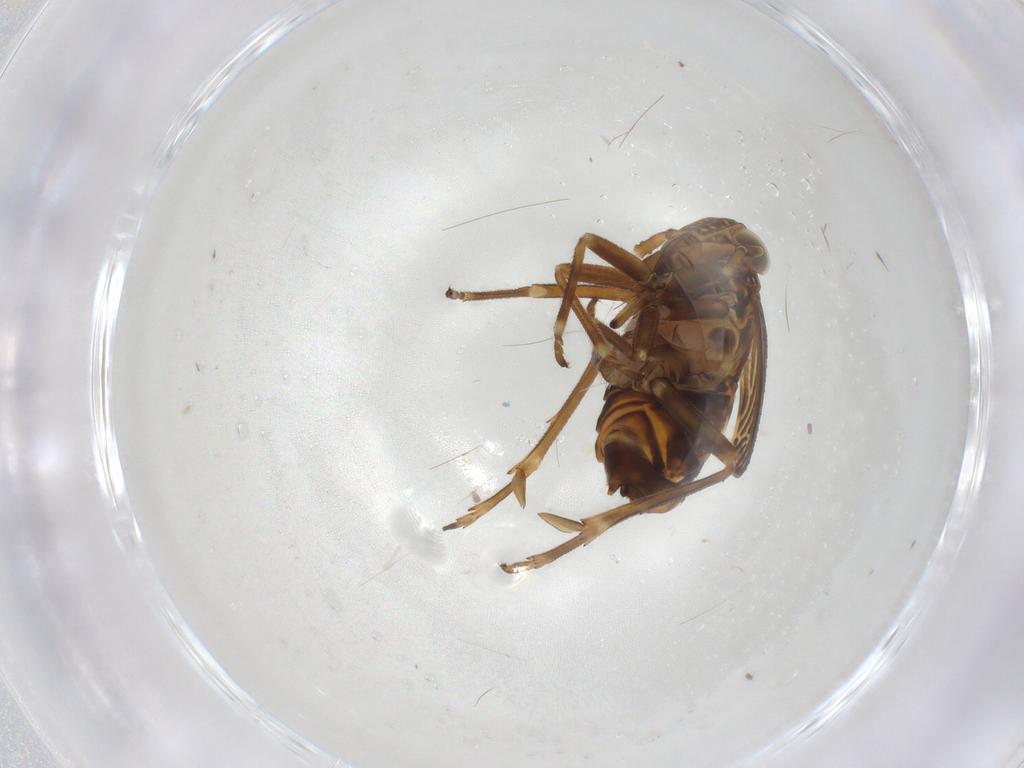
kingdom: Animalia
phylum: Arthropoda
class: Insecta
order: Hemiptera
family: Delphacidae
